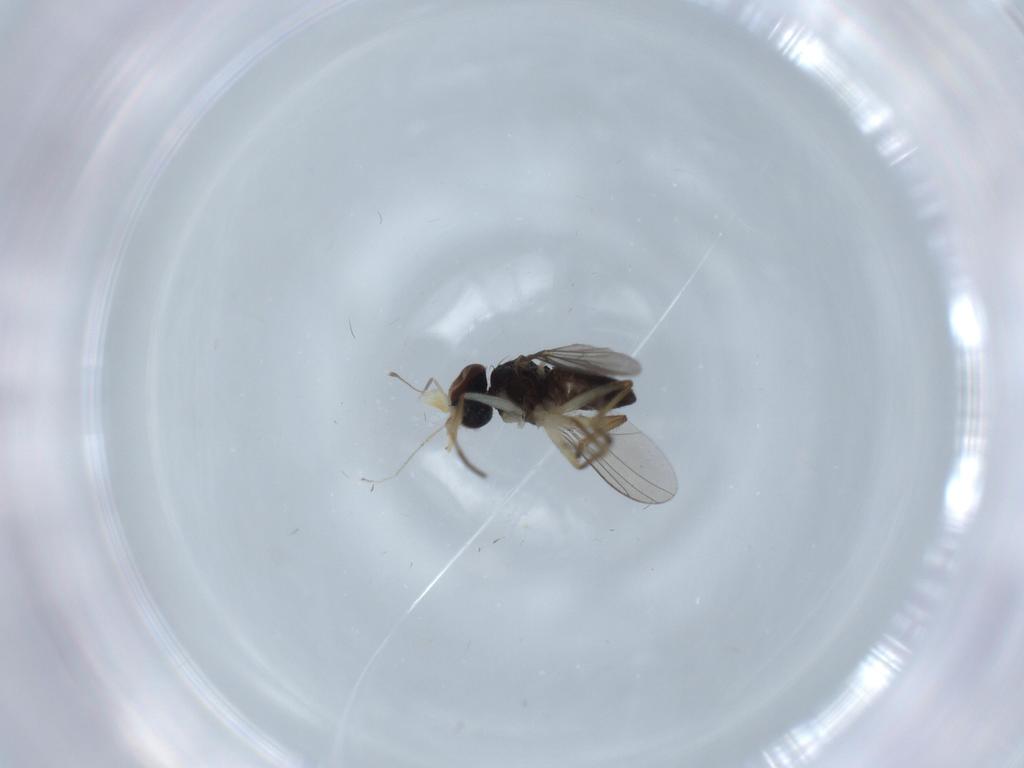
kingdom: Animalia
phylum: Arthropoda
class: Insecta
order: Diptera
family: Dolichopodidae
